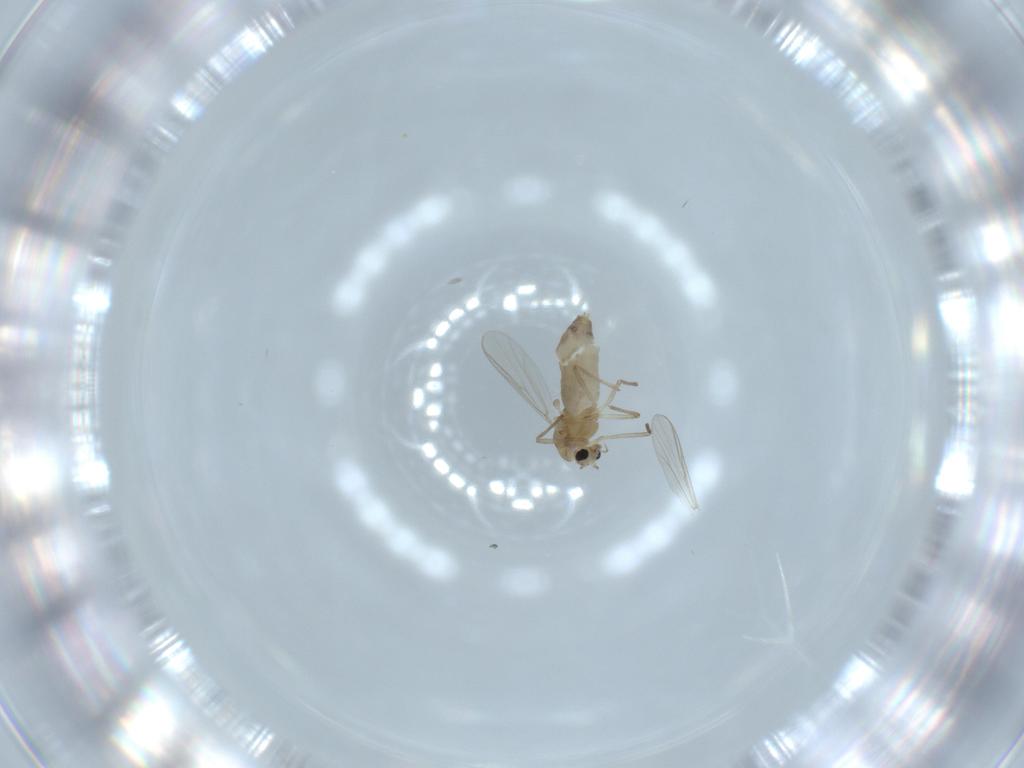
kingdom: Animalia
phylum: Arthropoda
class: Insecta
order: Diptera
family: Chironomidae
